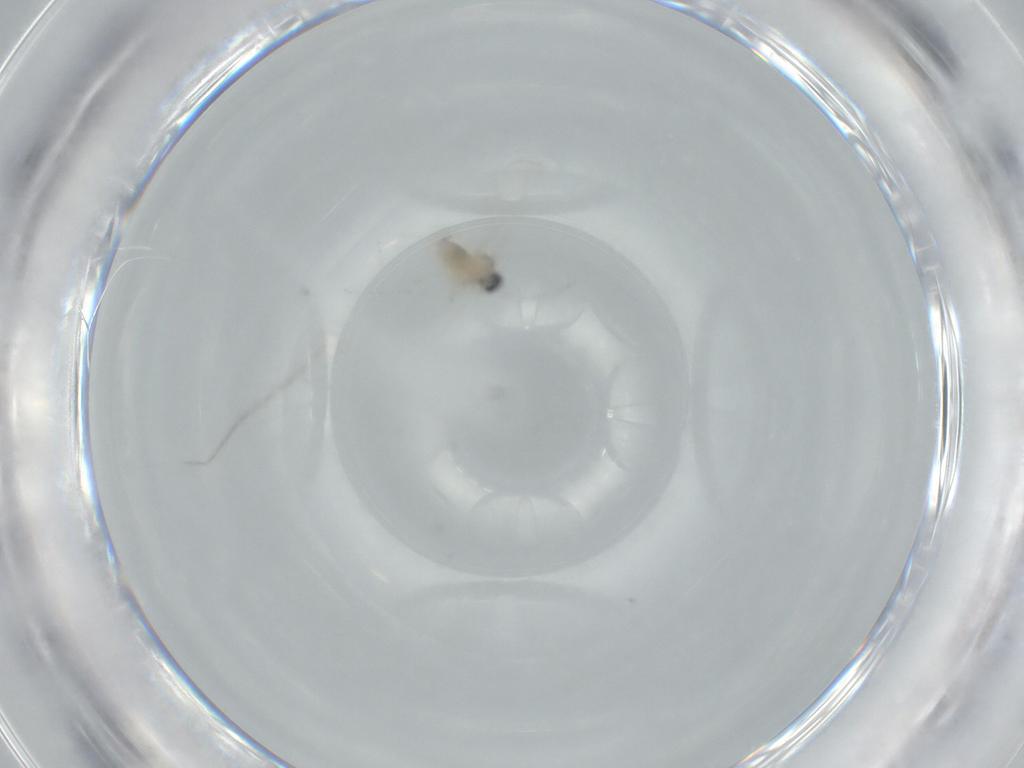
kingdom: Animalia
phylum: Arthropoda
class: Insecta
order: Diptera
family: Cecidomyiidae
